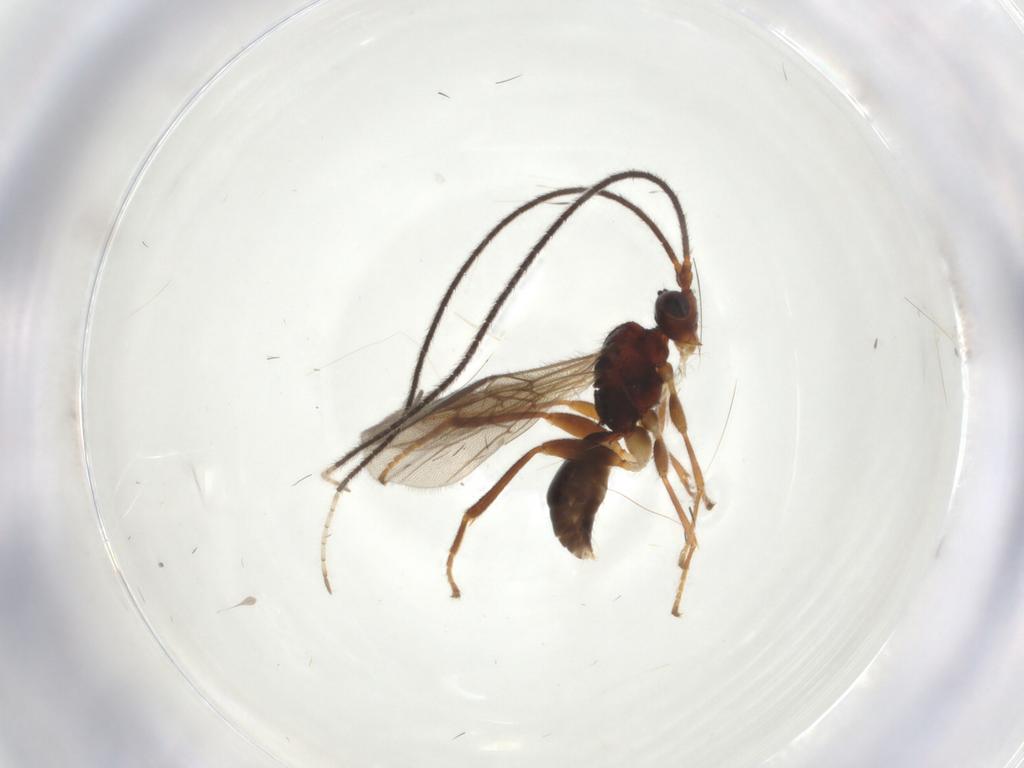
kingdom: Animalia
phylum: Arthropoda
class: Insecta
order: Hymenoptera
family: Braconidae
